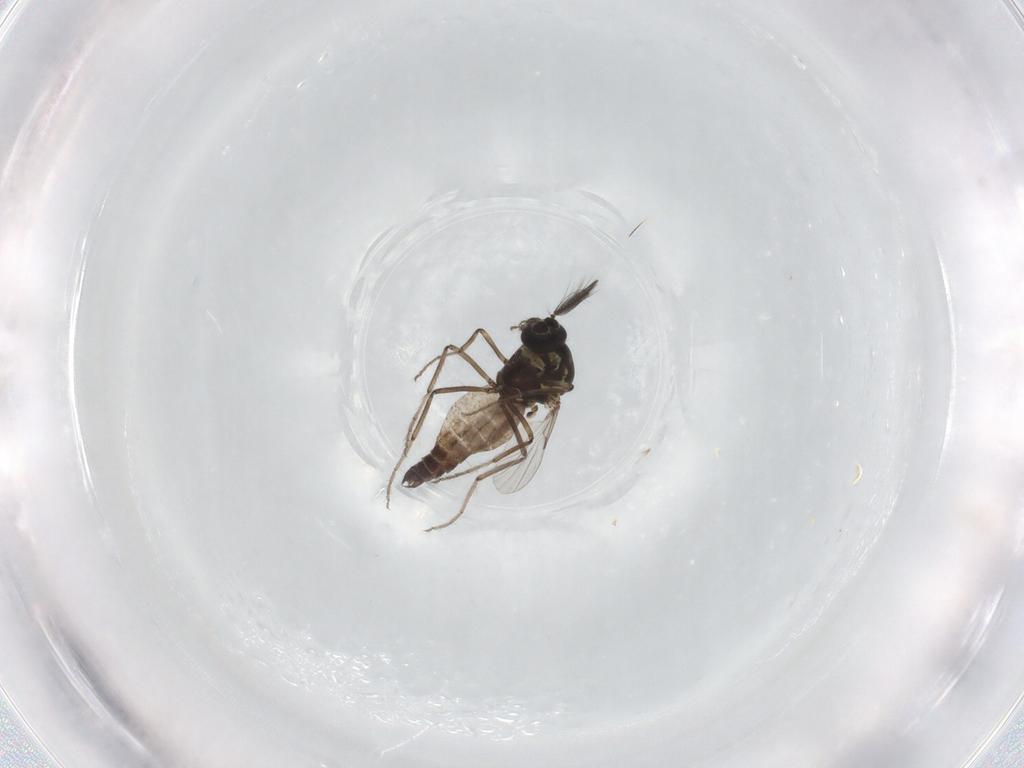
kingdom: Animalia
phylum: Arthropoda
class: Insecta
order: Diptera
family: Ceratopogonidae
